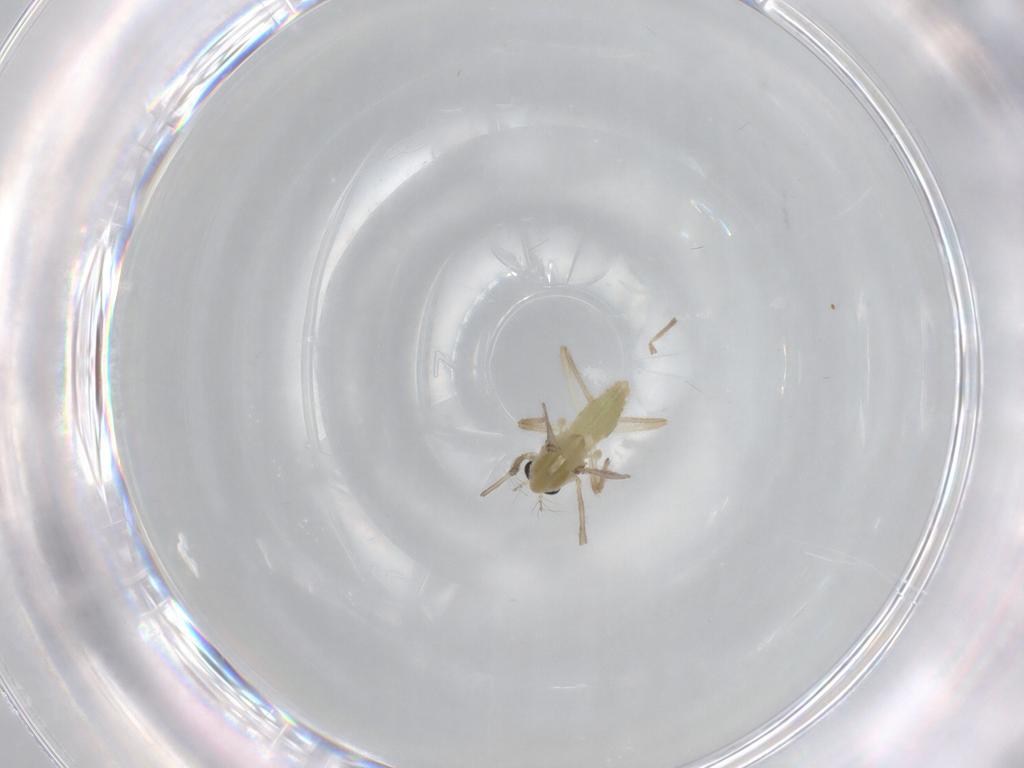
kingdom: Animalia
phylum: Arthropoda
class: Insecta
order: Diptera
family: Chironomidae
